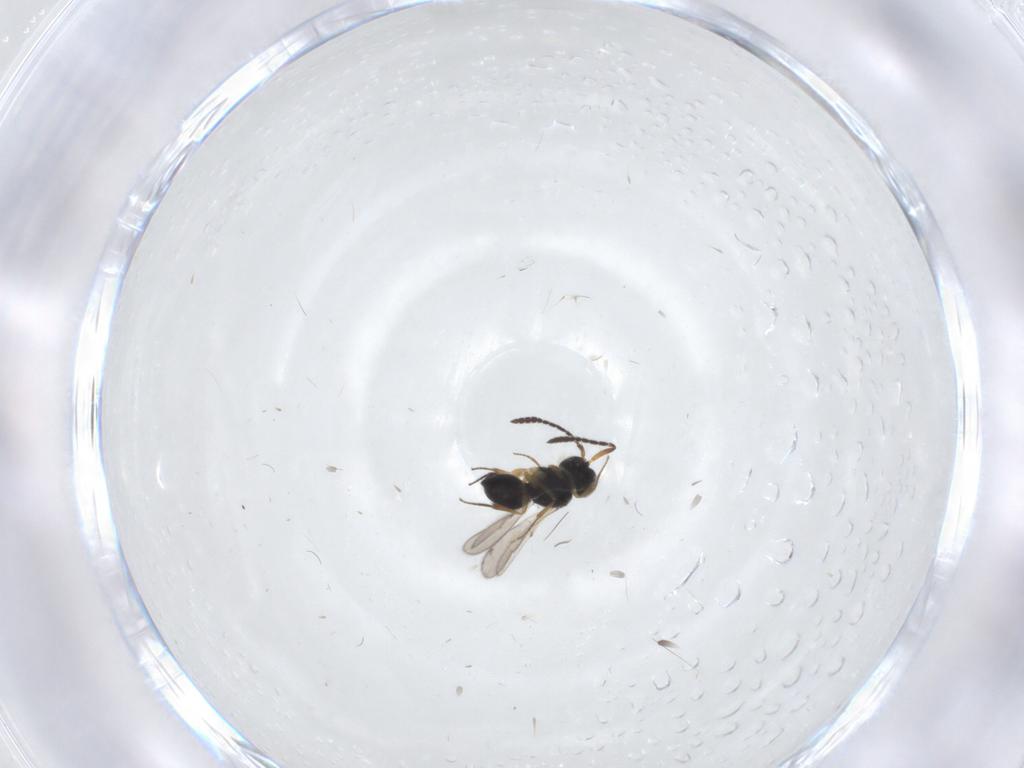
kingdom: Animalia
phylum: Arthropoda
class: Insecta
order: Hymenoptera
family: Scelionidae
